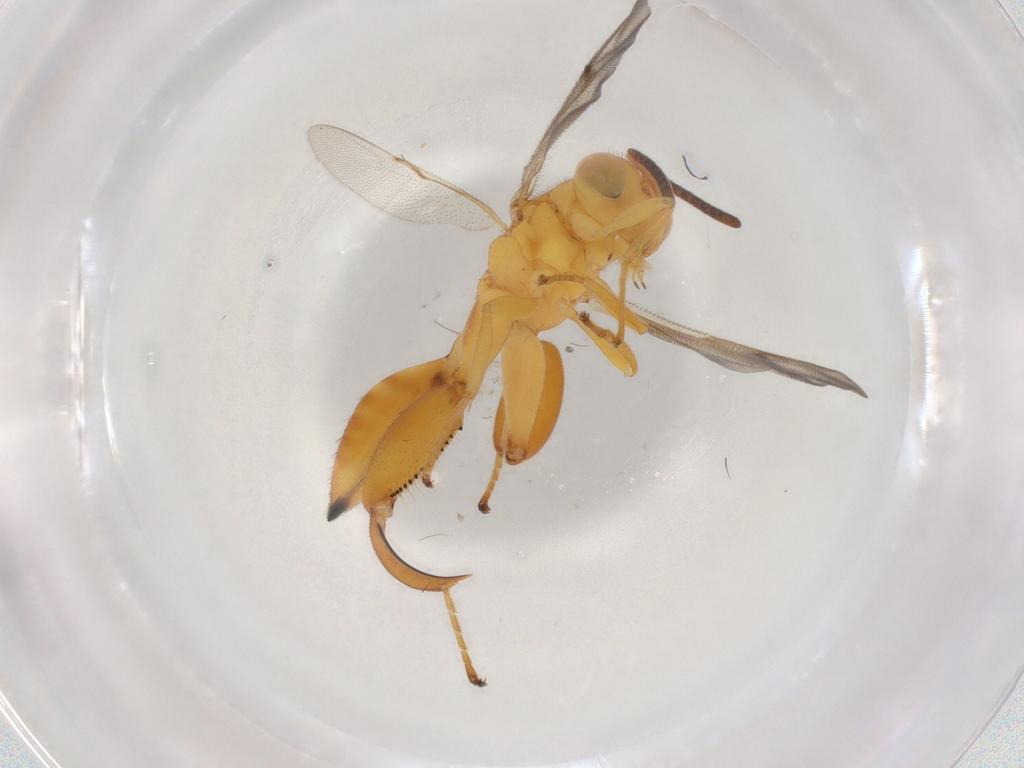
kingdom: Animalia
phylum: Arthropoda
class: Insecta
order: Hymenoptera
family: Chalcididae
